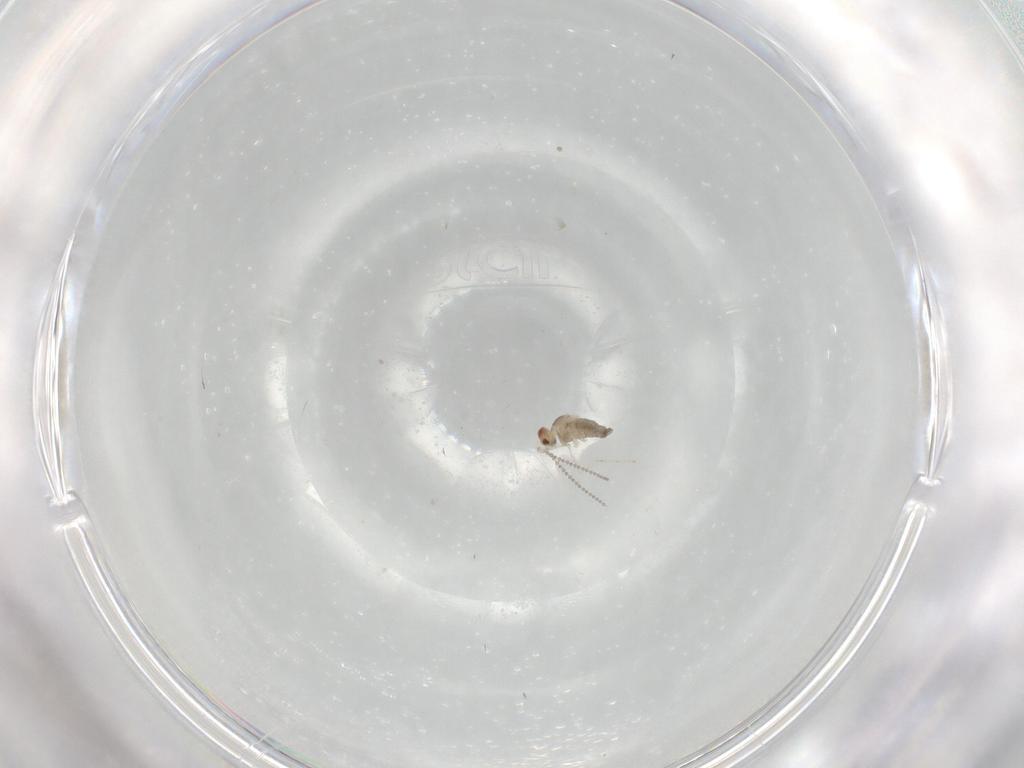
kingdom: Animalia
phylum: Arthropoda
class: Insecta
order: Diptera
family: Cecidomyiidae
